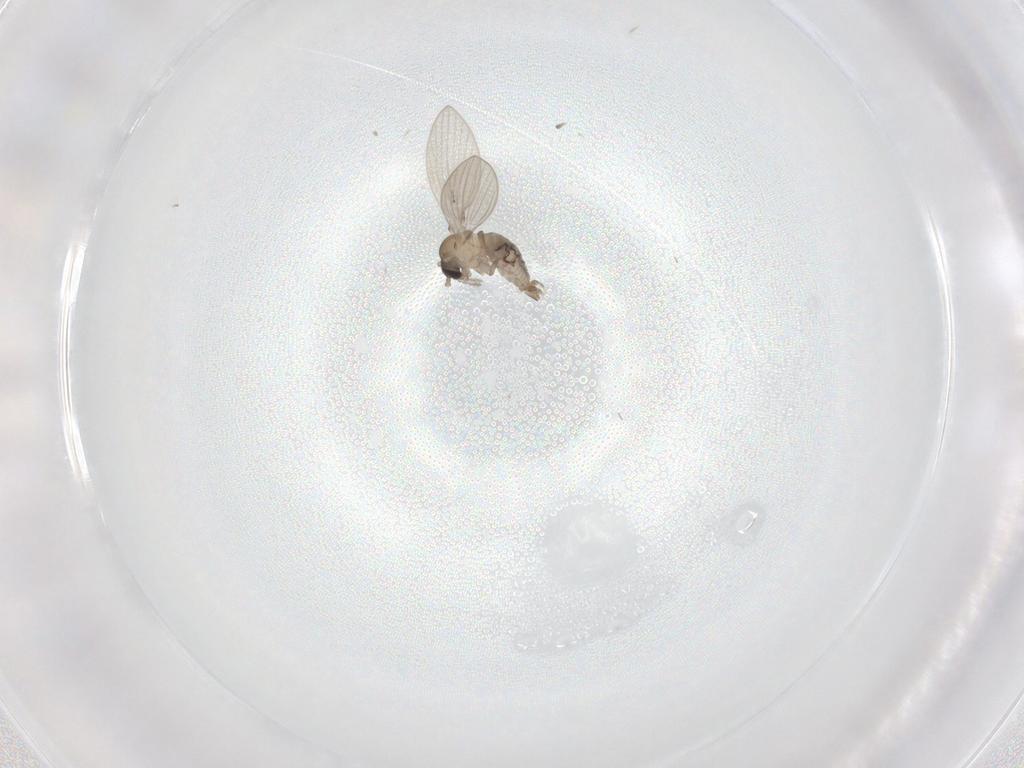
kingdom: Animalia
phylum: Arthropoda
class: Insecta
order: Diptera
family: Psychodidae
